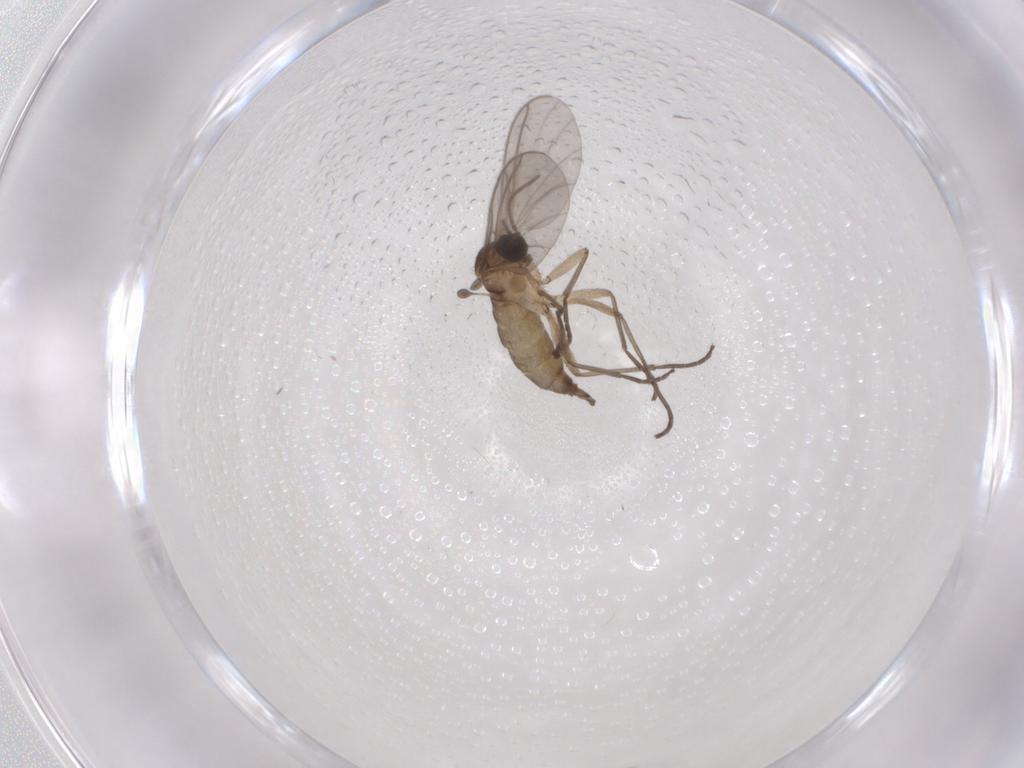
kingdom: Animalia
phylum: Arthropoda
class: Insecta
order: Diptera
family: Sciaridae
